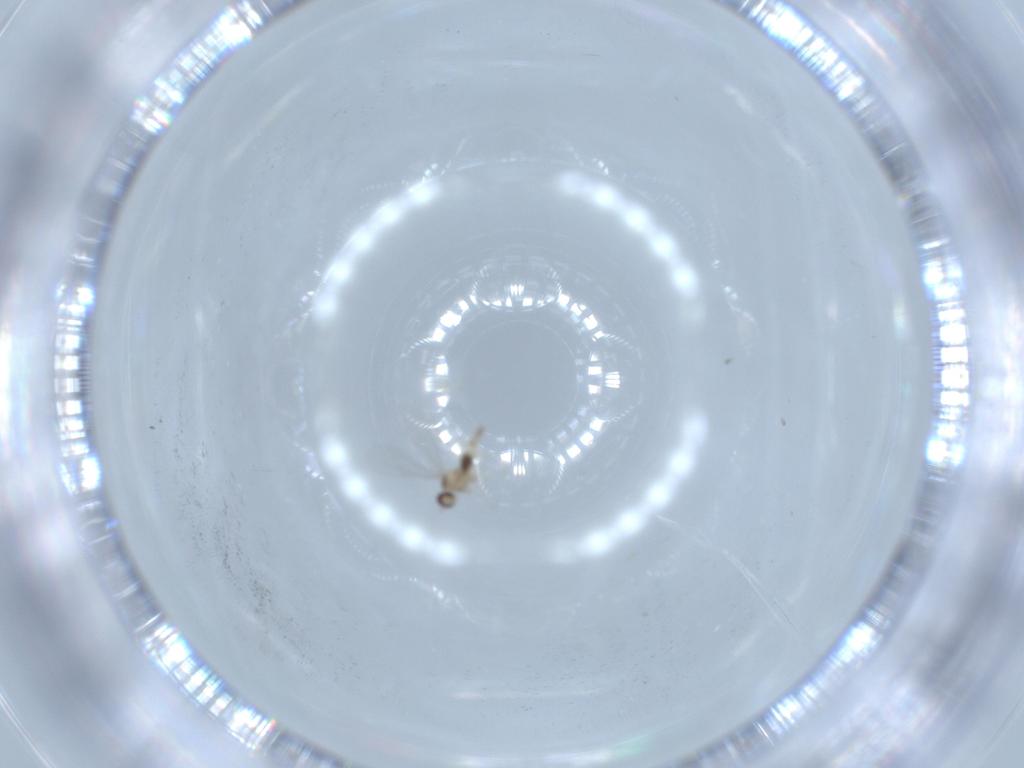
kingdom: Animalia
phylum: Arthropoda
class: Insecta
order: Diptera
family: Cecidomyiidae
